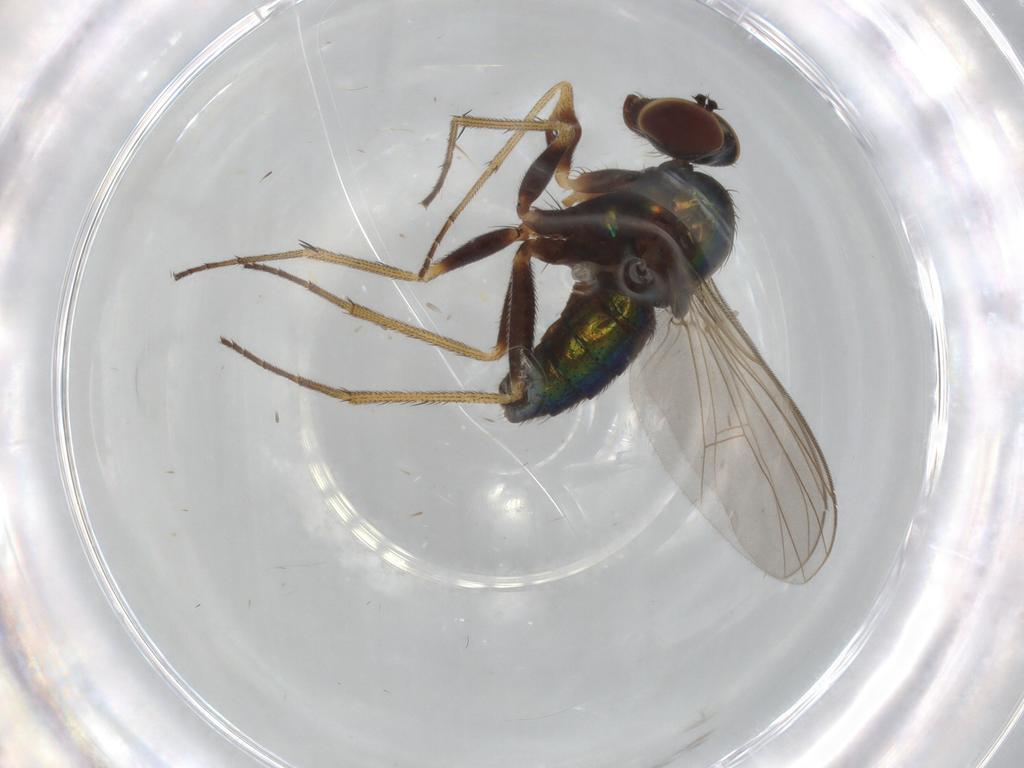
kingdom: Animalia
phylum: Arthropoda
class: Insecta
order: Diptera
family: Dolichopodidae
